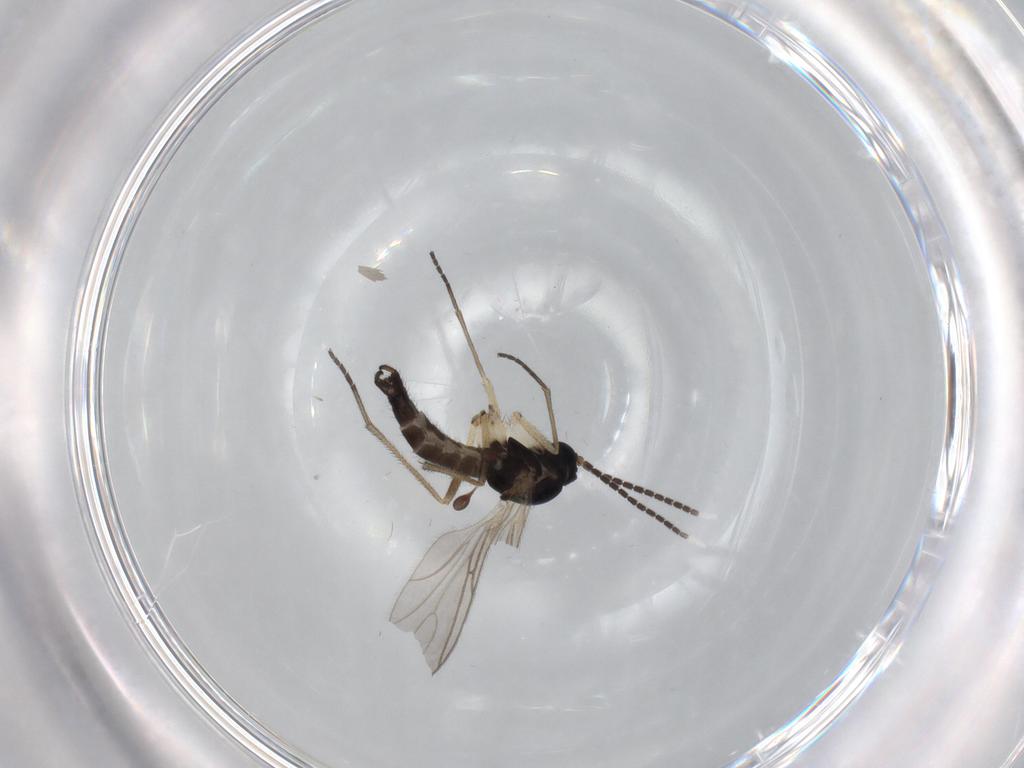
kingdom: Animalia
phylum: Arthropoda
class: Insecta
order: Diptera
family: Sciaridae
